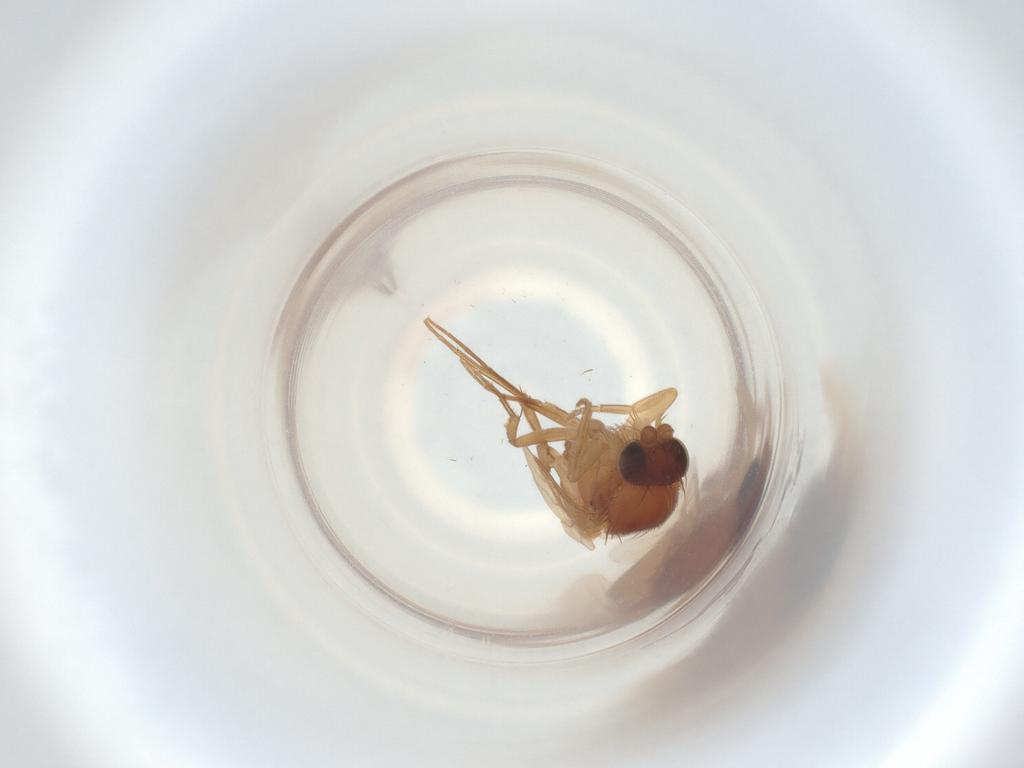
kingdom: Animalia
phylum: Arthropoda
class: Insecta
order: Diptera
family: Phoridae
